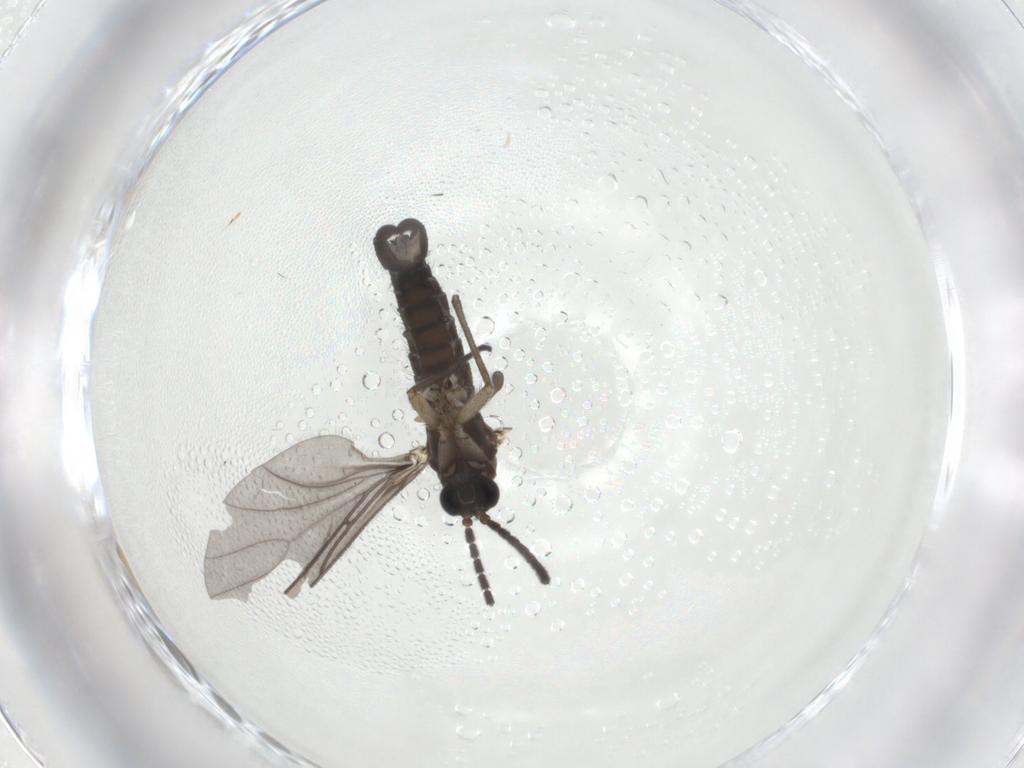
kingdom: Animalia
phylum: Arthropoda
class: Insecta
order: Diptera
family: Sciaridae
